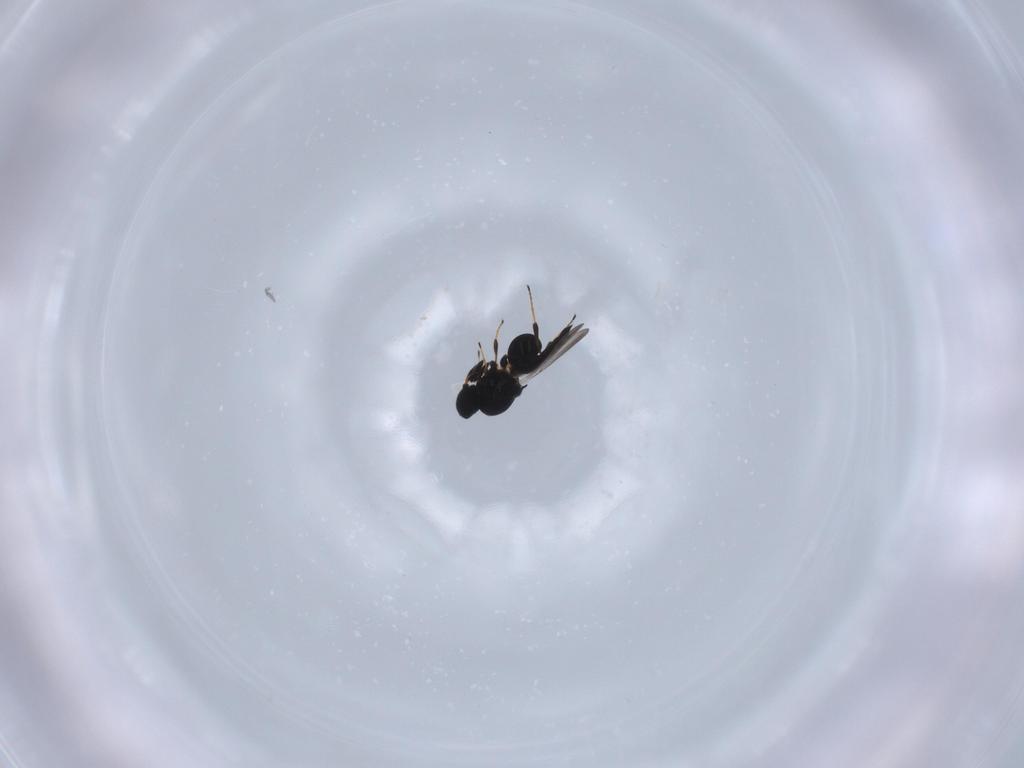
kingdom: Animalia
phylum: Arthropoda
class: Insecta
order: Hymenoptera
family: Platygastridae
